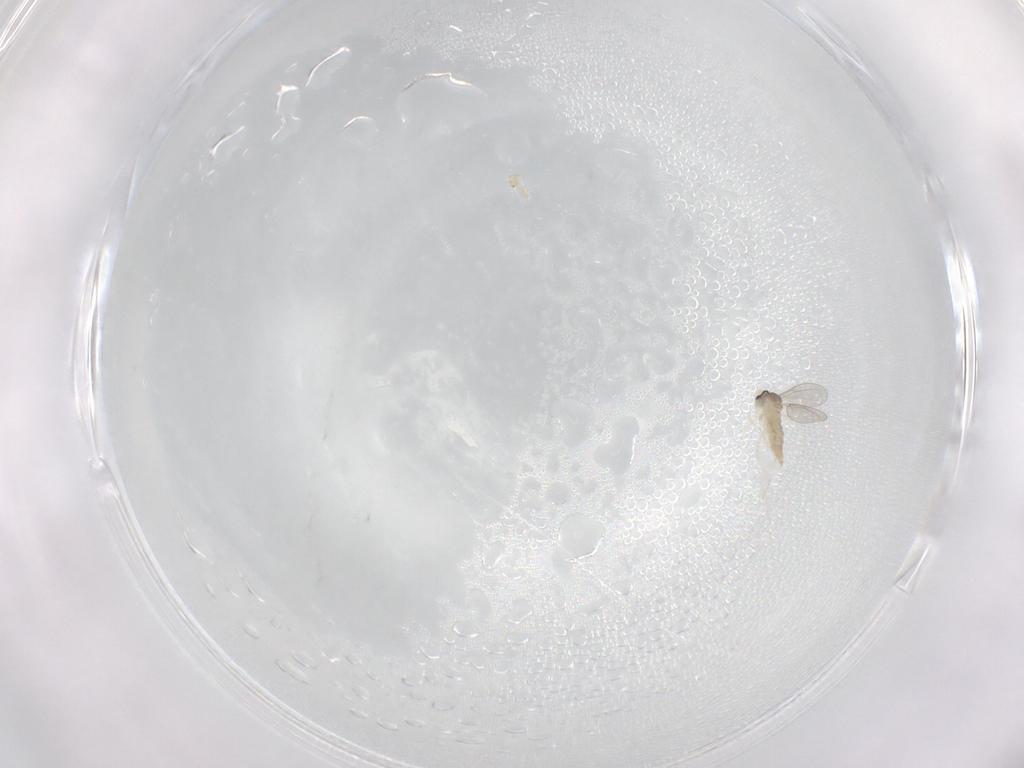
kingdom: Animalia
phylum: Arthropoda
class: Insecta
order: Diptera
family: Cecidomyiidae
